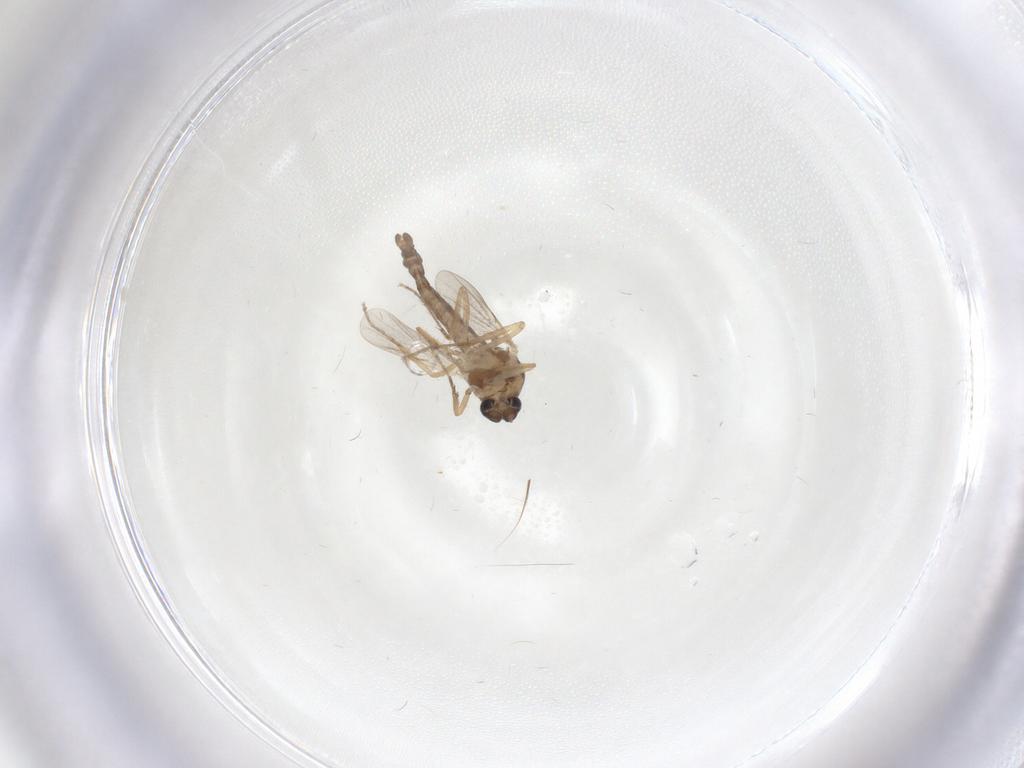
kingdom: Animalia
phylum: Arthropoda
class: Insecta
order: Diptera
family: Ceratopogonidae
